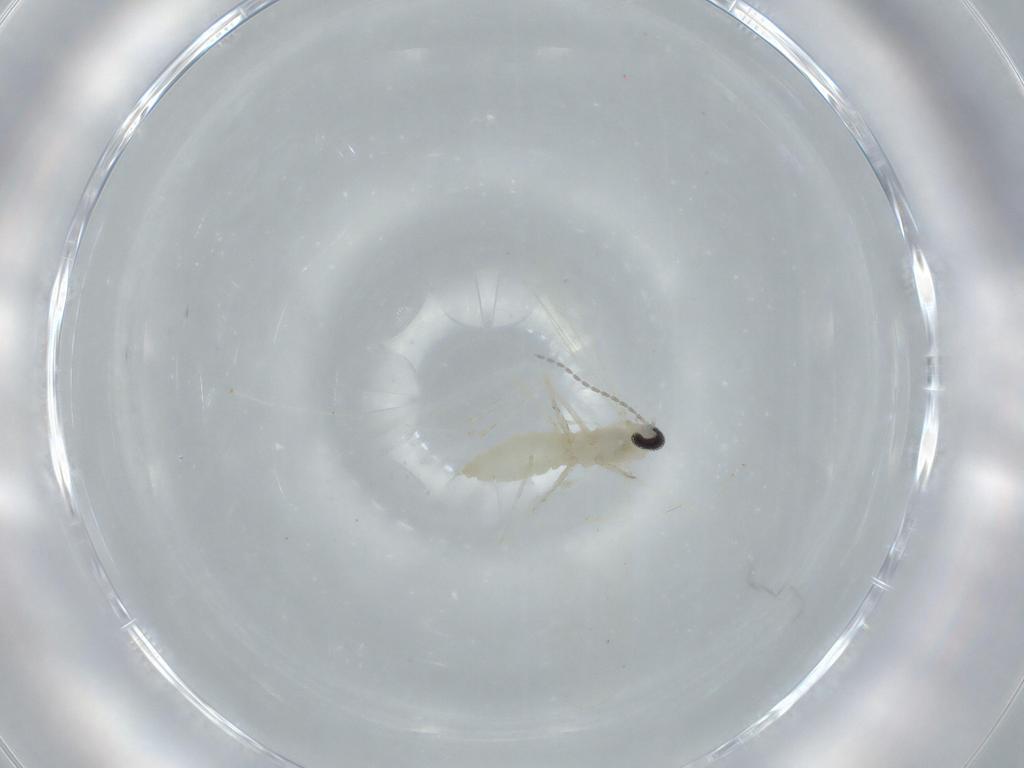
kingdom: Animalia
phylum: Arthropoda
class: Insecta
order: Diptera
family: Cecidomyiidae
